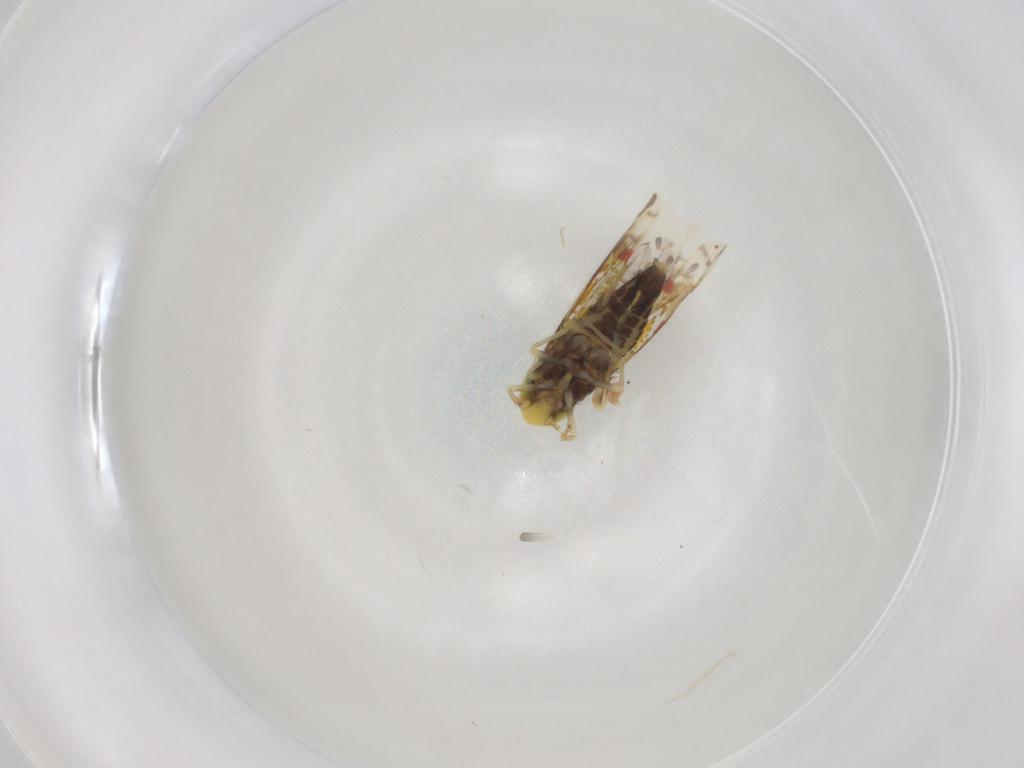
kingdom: Animalia
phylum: Arthropoda
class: Insecta
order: Hemiptera
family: Cicadellidae
